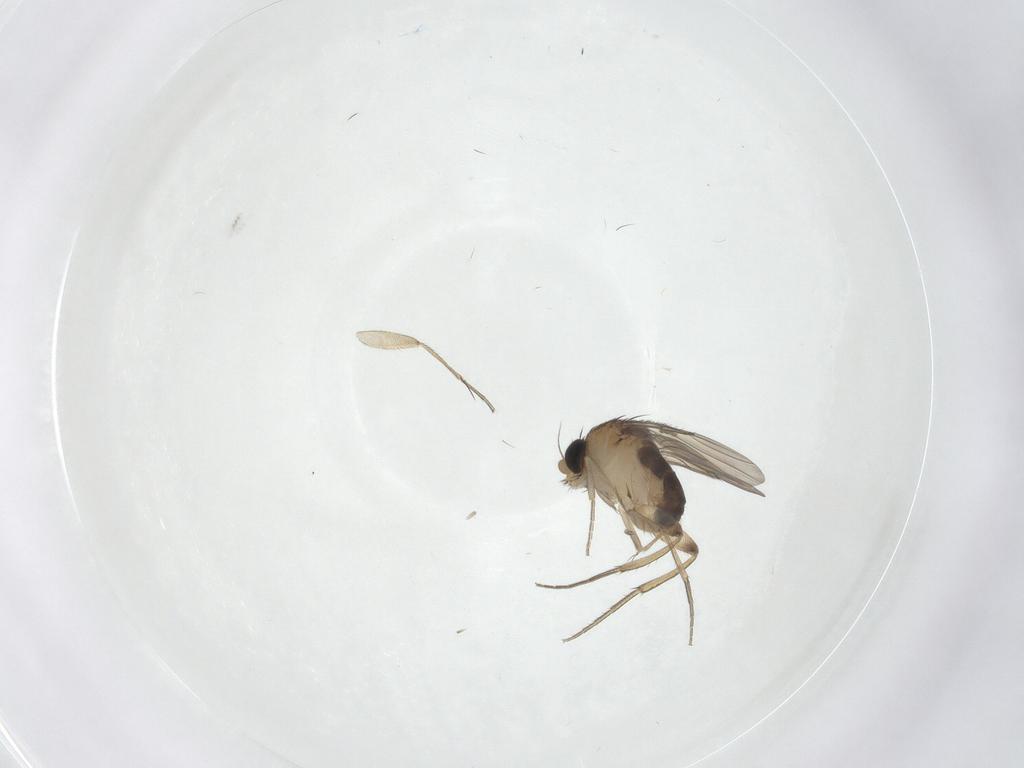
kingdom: Animalia
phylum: Arthropoda
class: Insecta
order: Diptera
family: Phoridae
